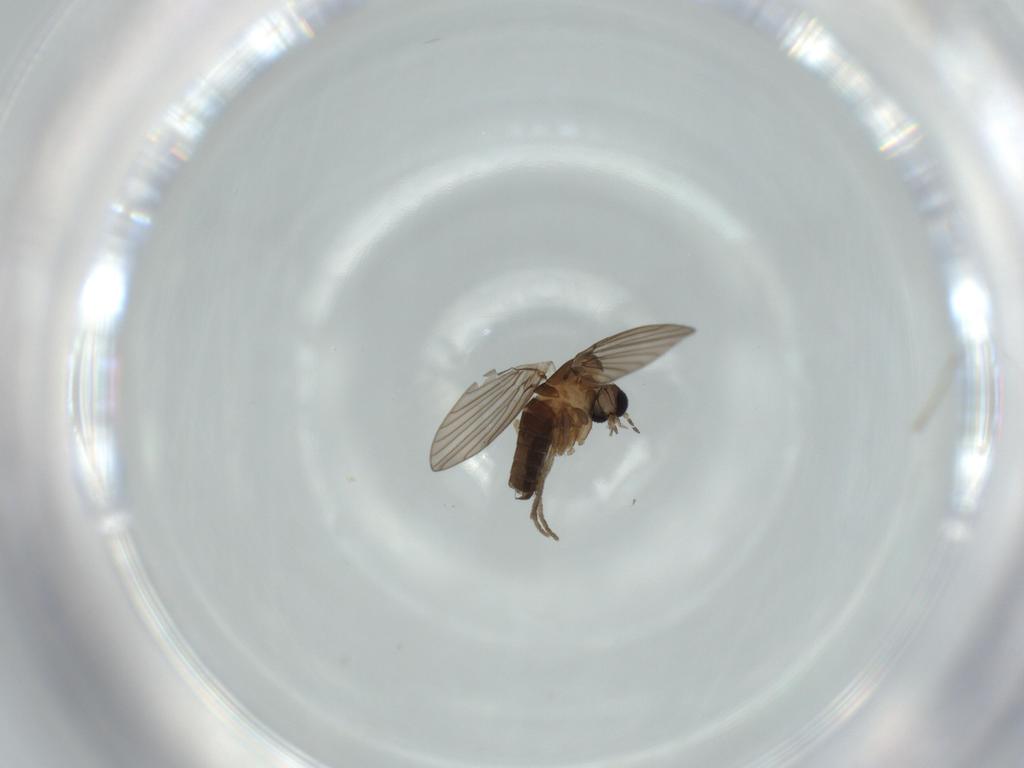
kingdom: Animalia
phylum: Arthropoda
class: Insecta
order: Diptera
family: Psychodidae
